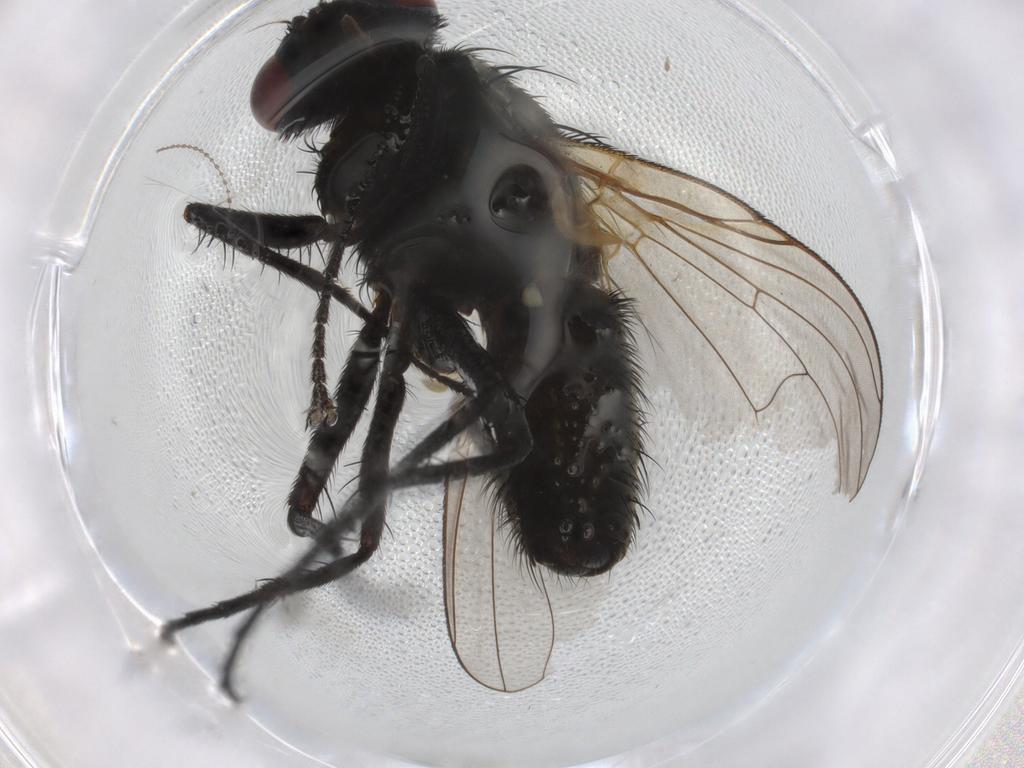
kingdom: Animalia
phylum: Arthropoda
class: Insecta
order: Diptera
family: Muscidae
